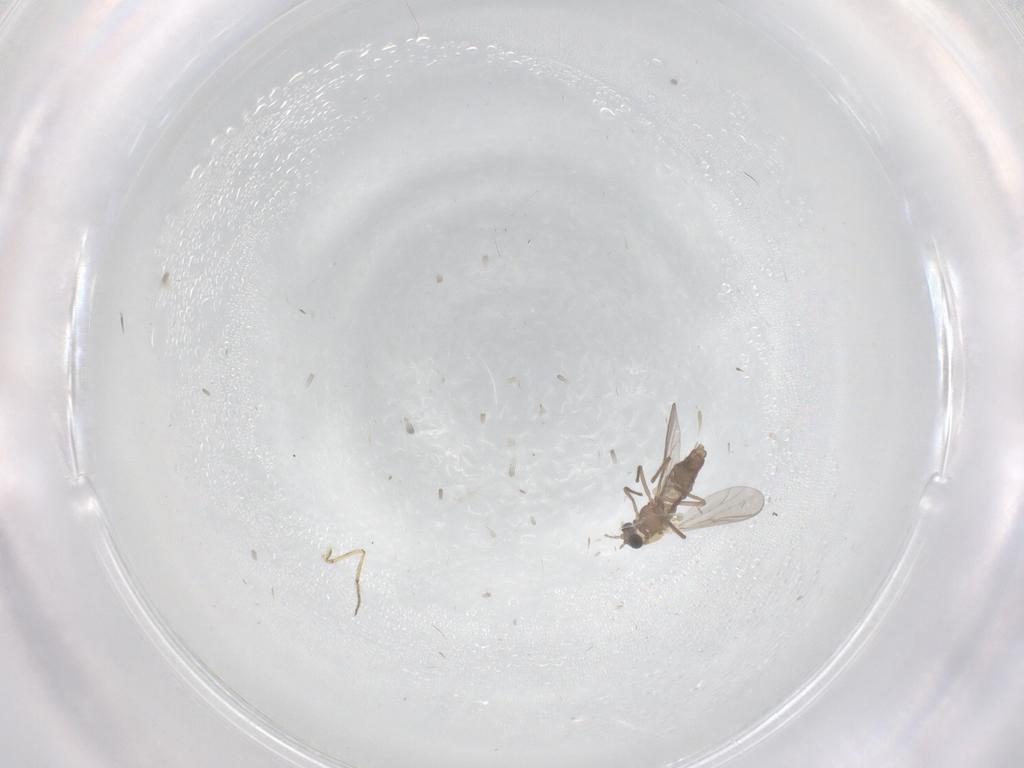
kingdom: Animalia
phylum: Arthropoda
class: Insecta
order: Diptera
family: Chironomidae
